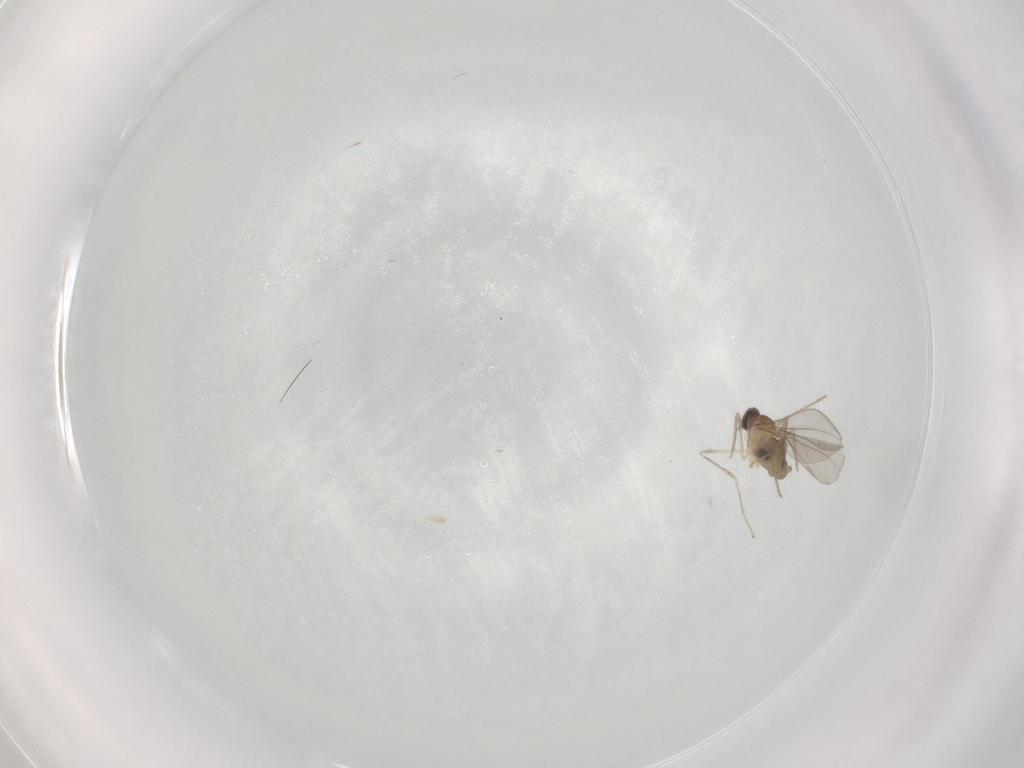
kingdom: Animalia
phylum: Arthropoda
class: Insecta
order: Diptera
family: Cecidomyiidae
